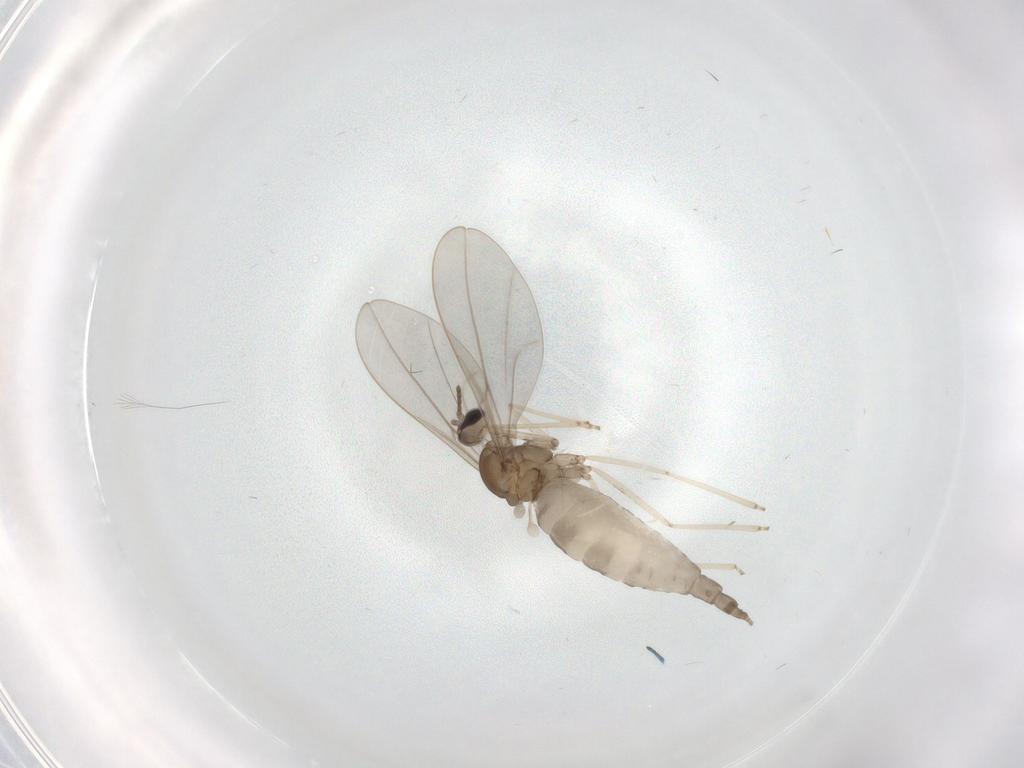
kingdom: Animalia
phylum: Arthropoda
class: Insecta
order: Diptera
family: Cecidomyiidae
